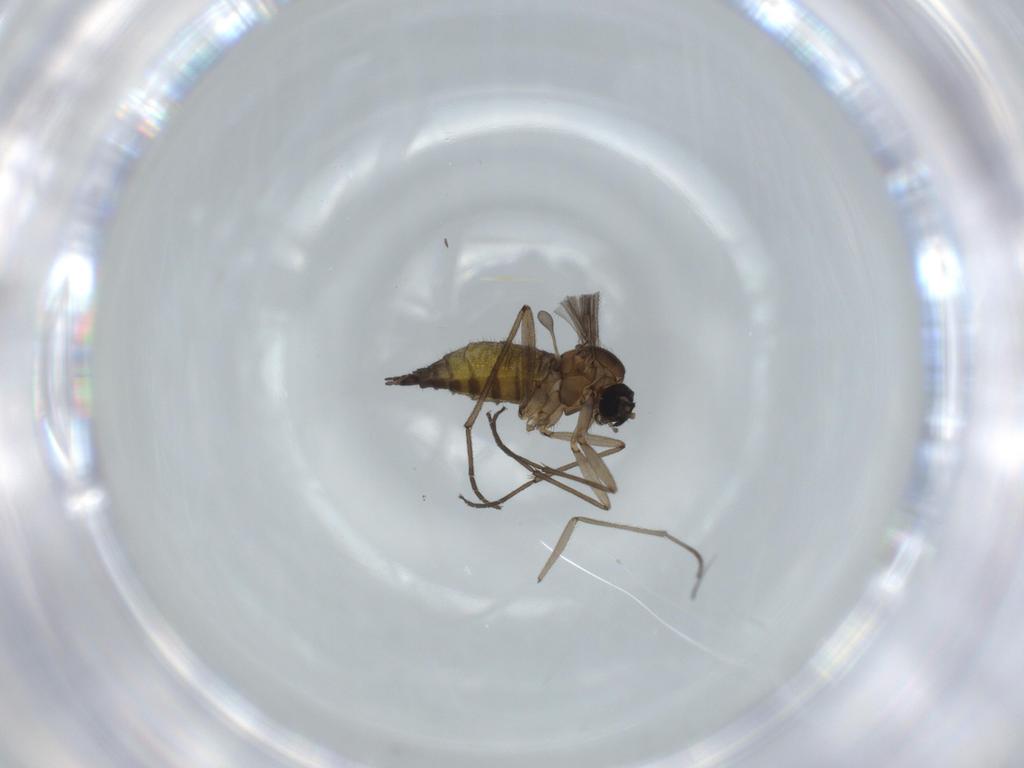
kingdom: Animalia
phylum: Arthropoda
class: Insecta
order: Diptera
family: Sciaridae
